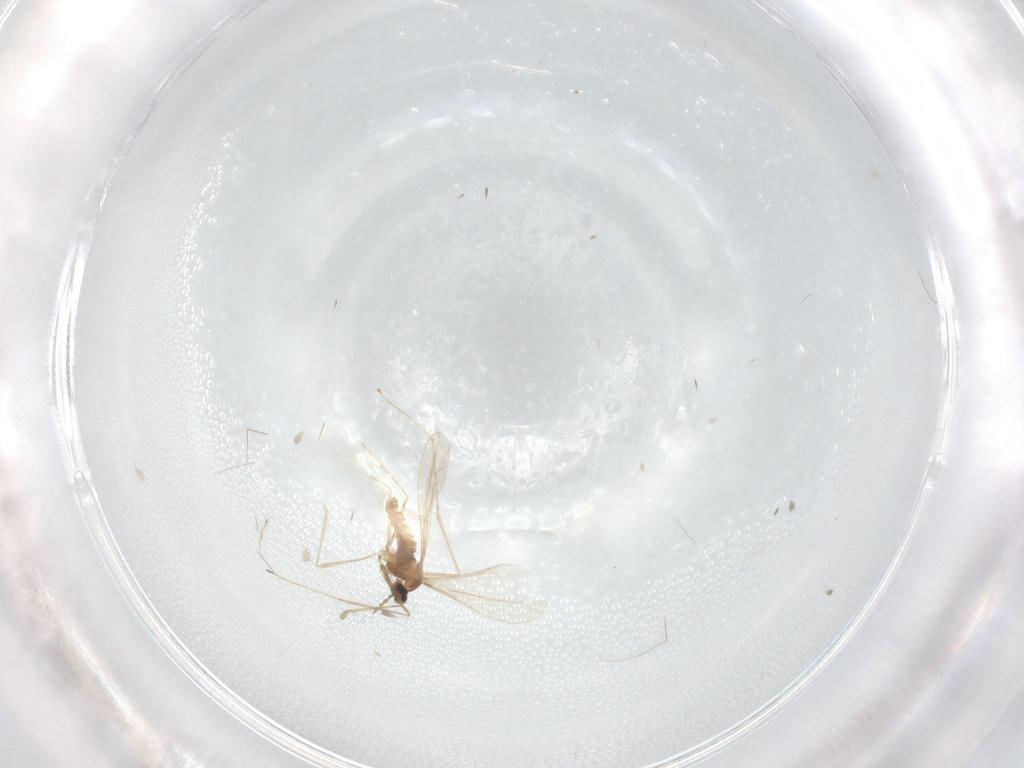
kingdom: Animalia
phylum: Arthropoda
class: Insecta
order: Diptera
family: Cecidomyiidae
